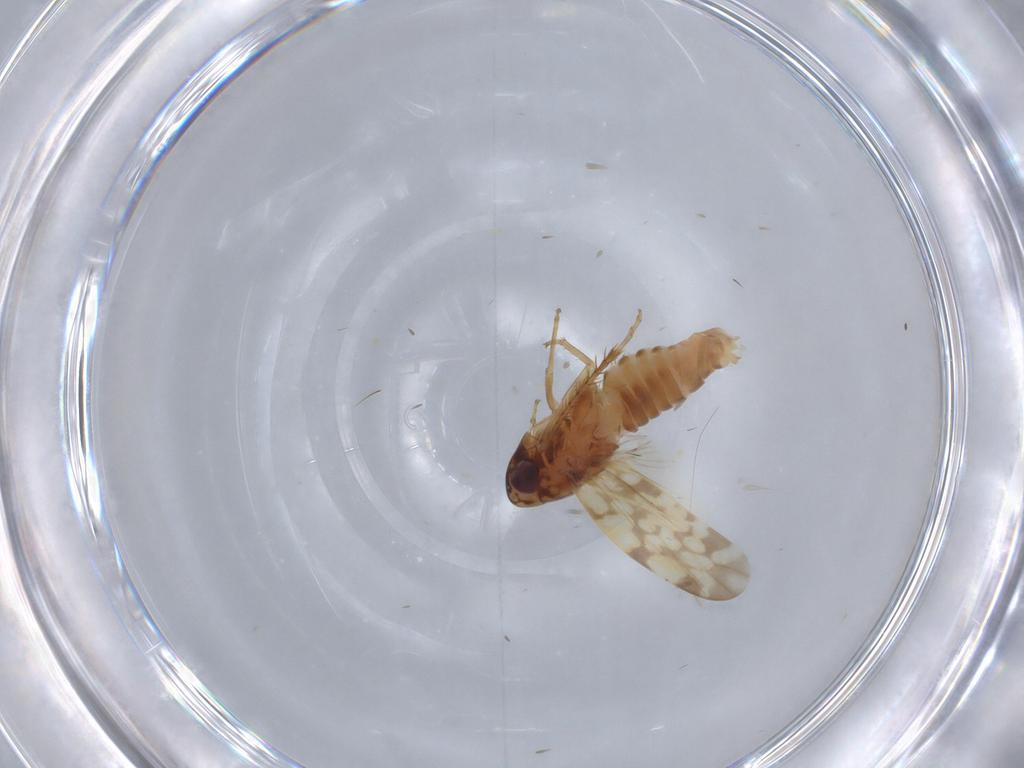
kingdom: Animalia
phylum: Arthropoda
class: Insecta
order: Hemiptera
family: Cicadellidae
